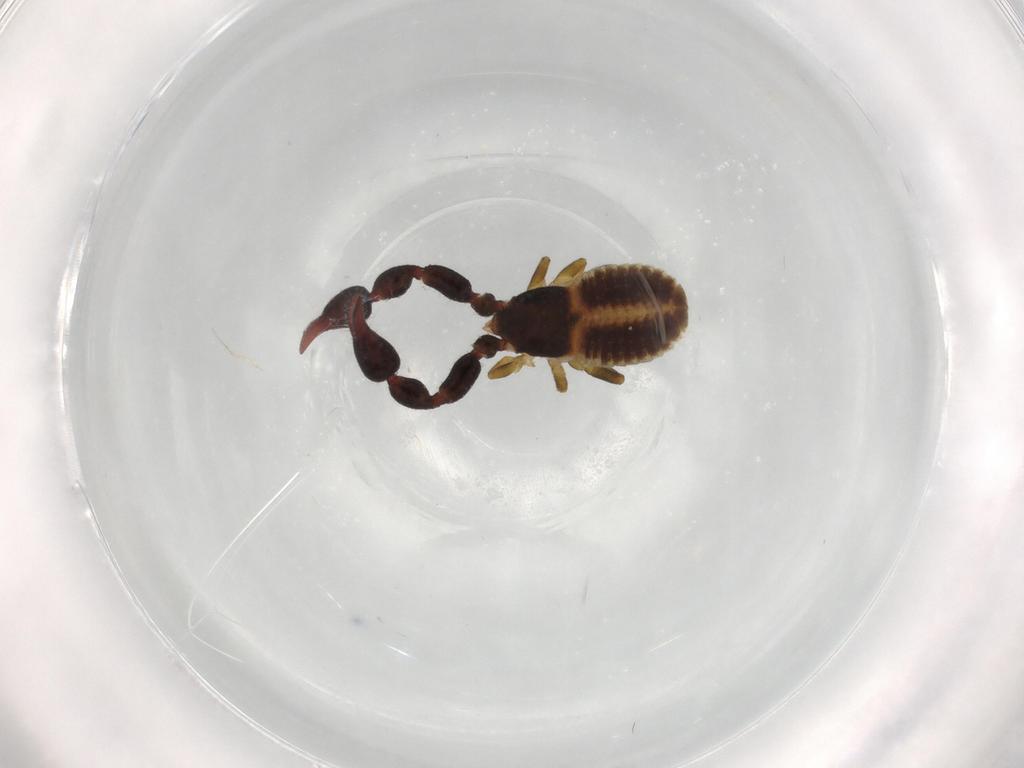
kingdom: Animalia
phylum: Arthropoda
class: Arachnida
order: Pseudoscorpiones
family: Chernetidae
